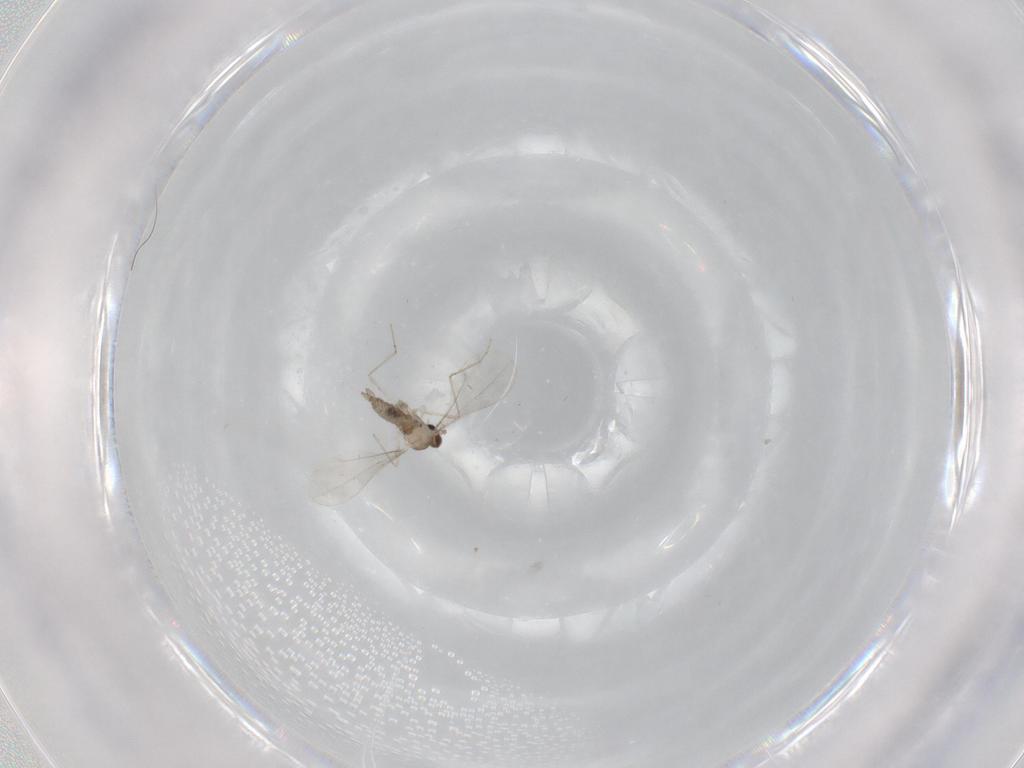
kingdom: Animalia
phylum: Arthropoda
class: Insecta
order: Diptera
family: Cecidomyiidae
